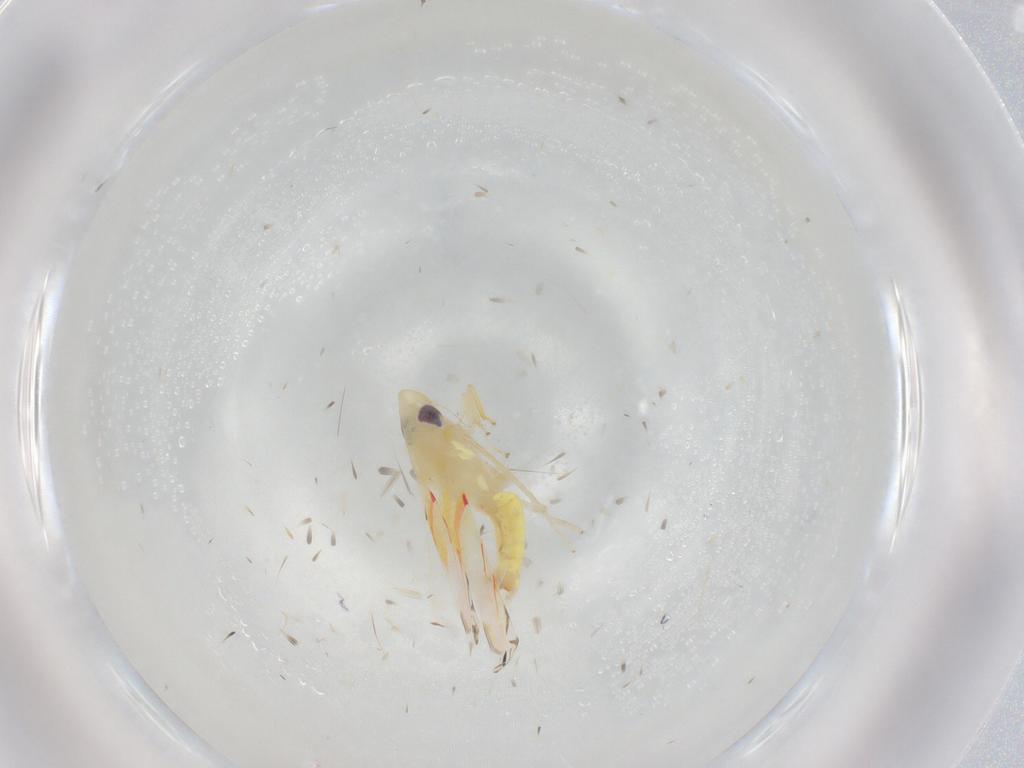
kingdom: Animalia
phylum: Arthropoda
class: Insecta
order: Hemiptera
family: Cicadellidae
